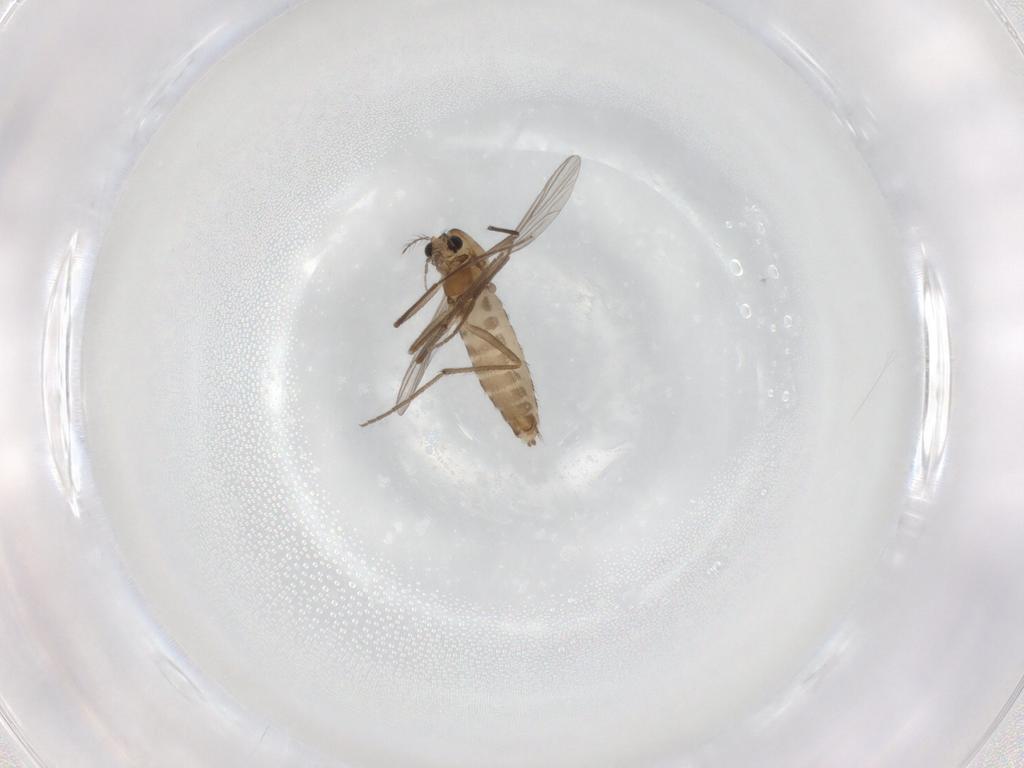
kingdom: Animalia
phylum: Arthropoda
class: Insecta
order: Diptera
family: Chironomidae
